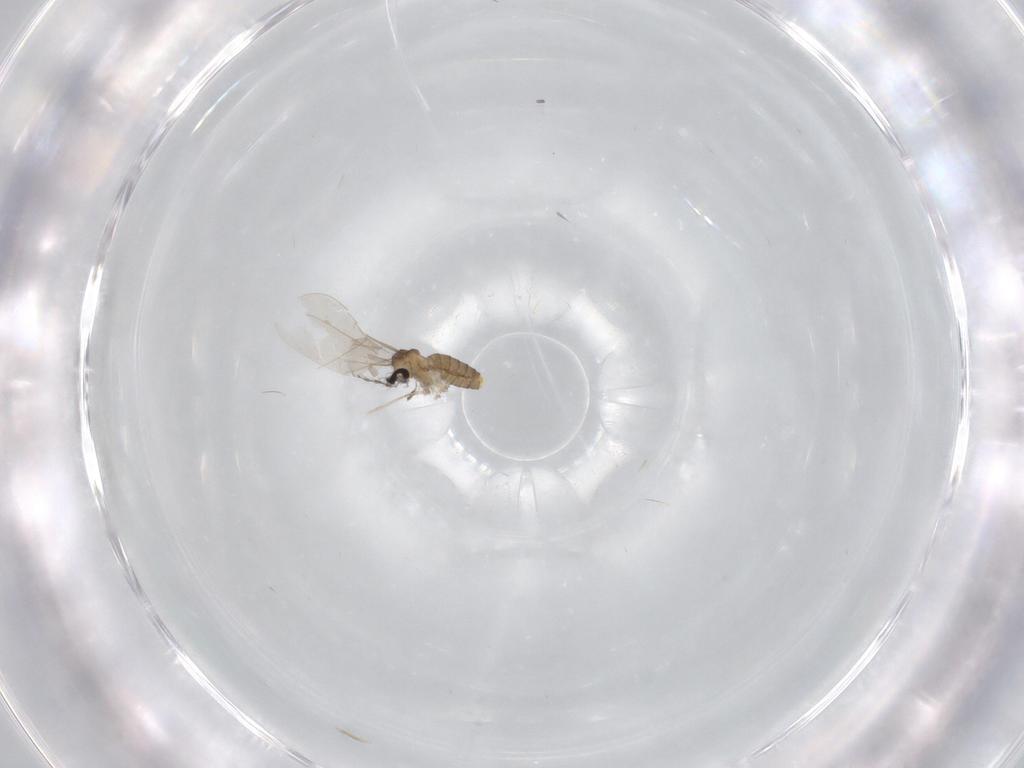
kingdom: Animalia
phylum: Arthropoda
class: Insecta
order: Diptera
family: Cecidomyiidae
